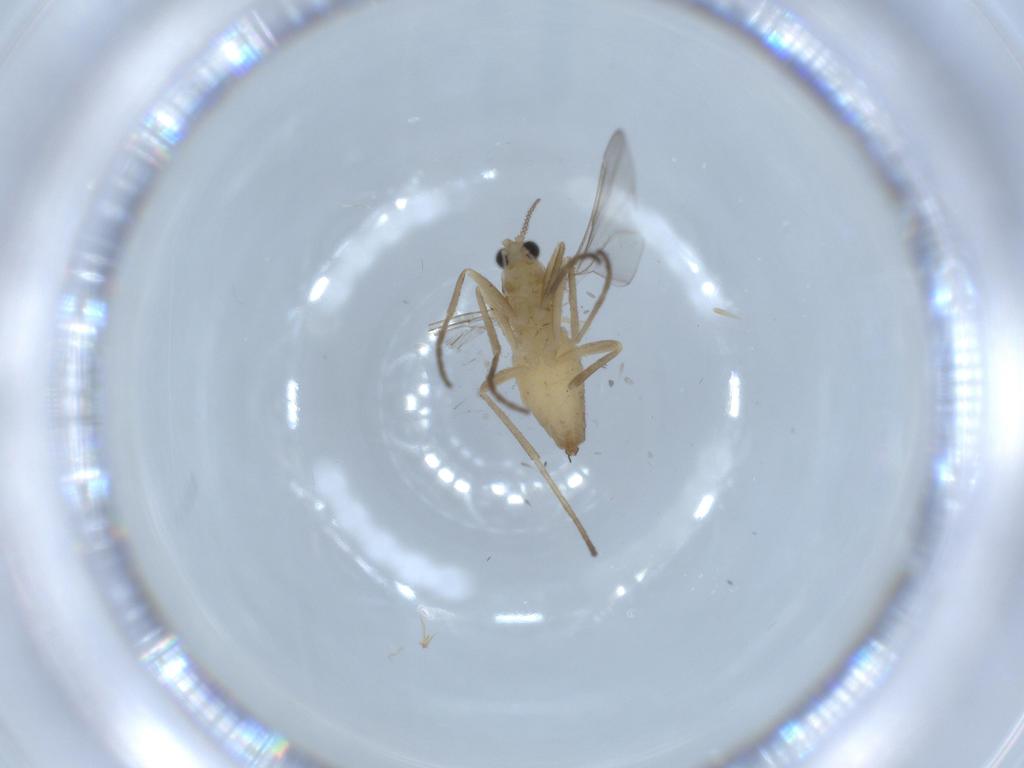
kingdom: Animalia
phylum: Arthropoda
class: Insecta
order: Diptera
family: Cecidomyiidae
